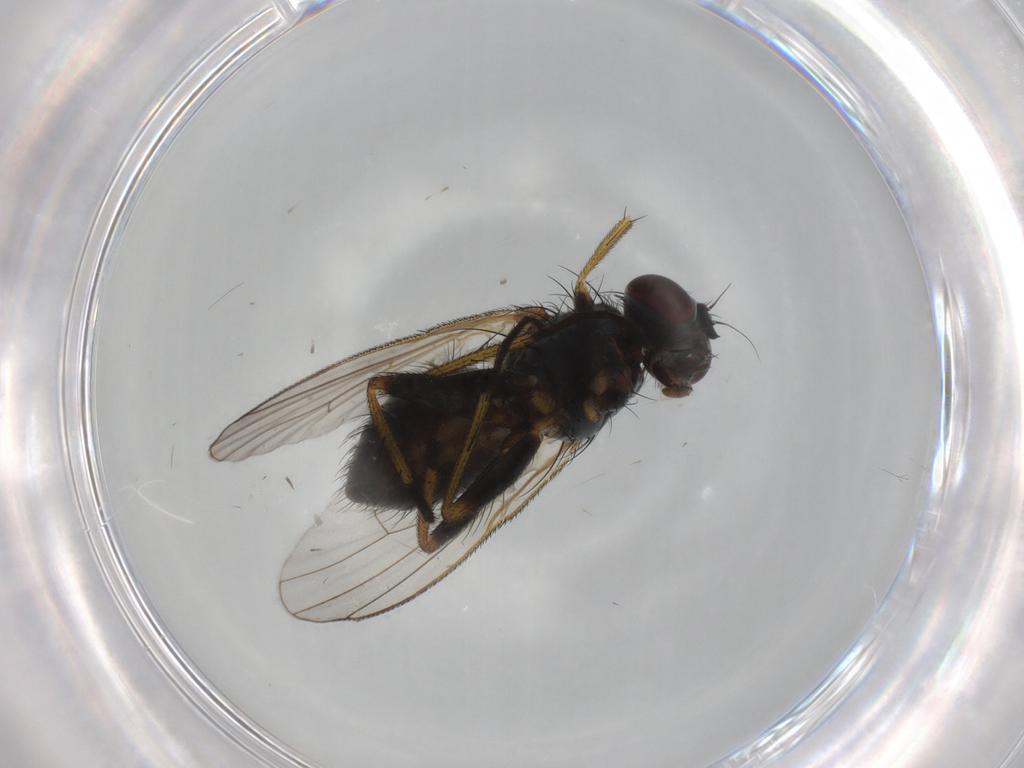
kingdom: Animalia
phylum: Arthropoda
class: Insecta
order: Diptera
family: Muscidae
